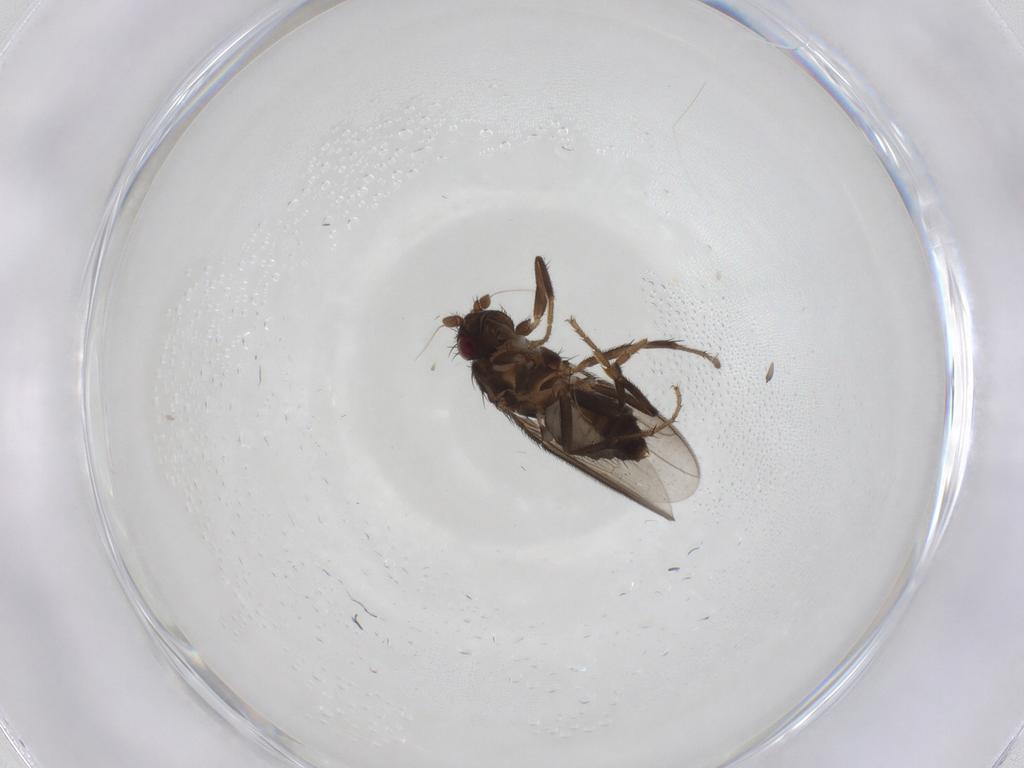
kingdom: Animalia
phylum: Arthropoda
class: Insecta
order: Diptera
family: Sphaeroceridae
